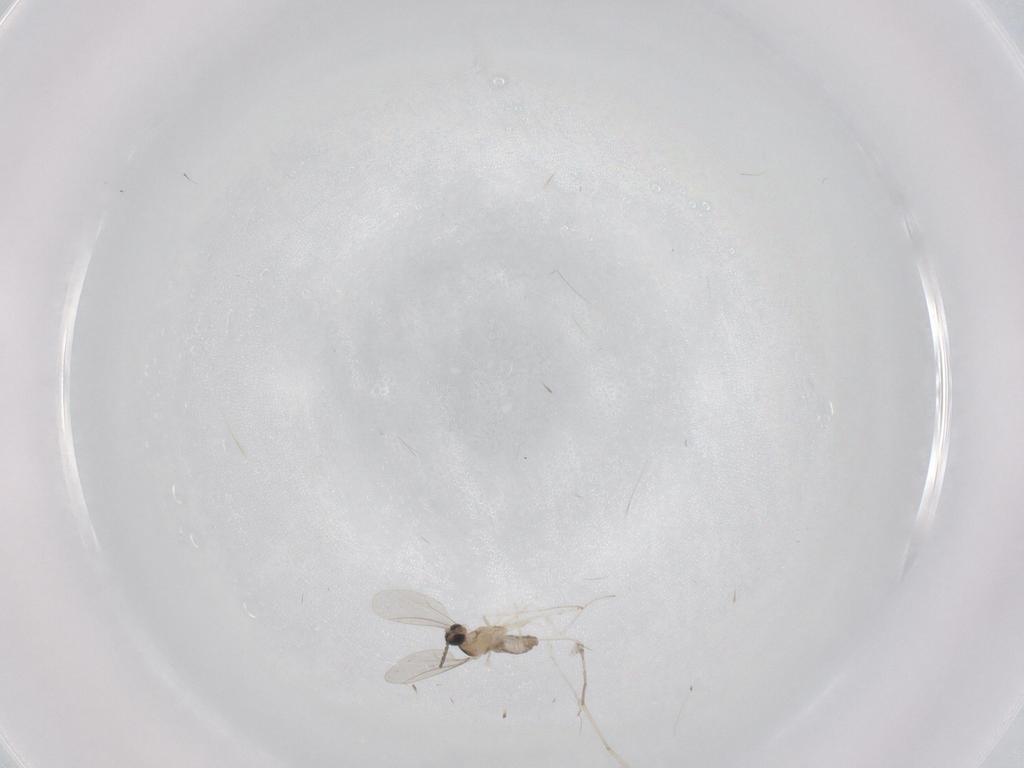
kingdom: Animalia
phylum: Arthropoda
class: Insecta
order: Diptera
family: Cecidomyiidae
